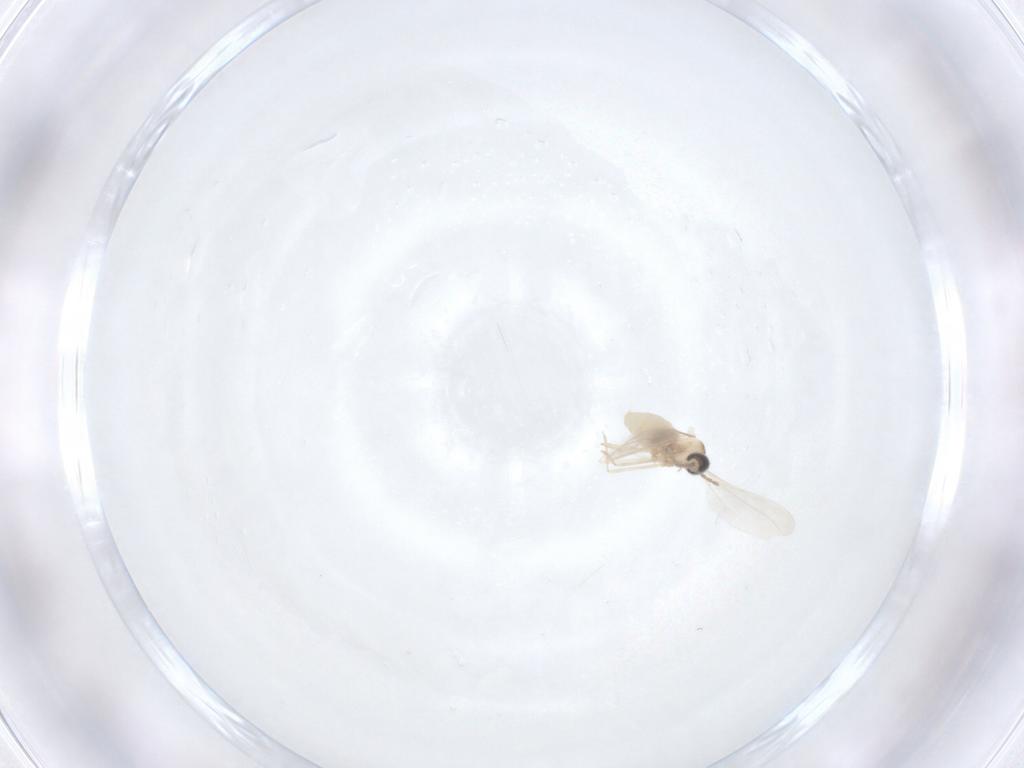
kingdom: Animalia
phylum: Arthropoda
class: Insecta
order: Diptera
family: Cecidomyiidae
